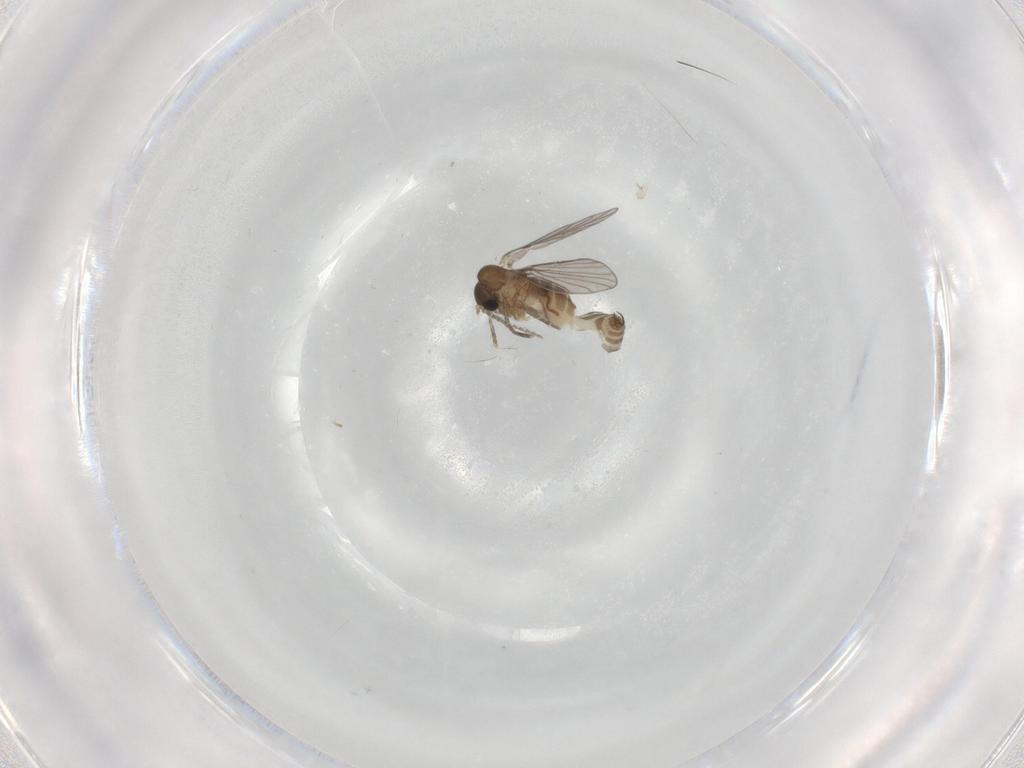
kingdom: Animalia
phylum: Arthropoda
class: Insecta
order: Diptera
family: Psychodidae
